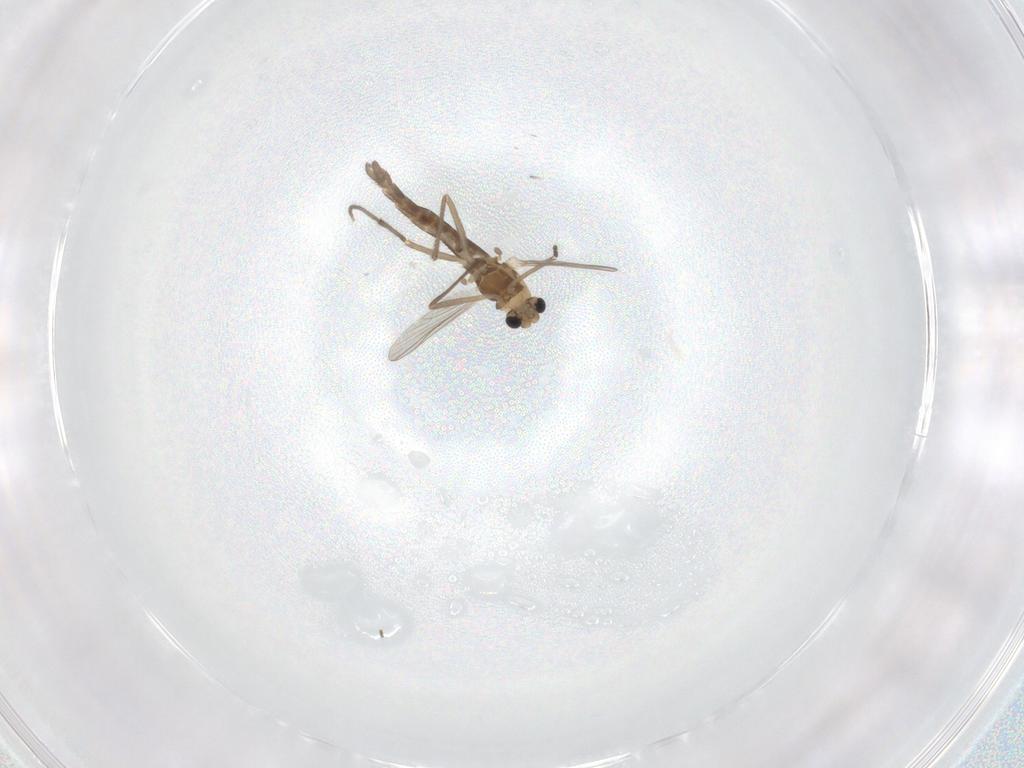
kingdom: Animalia
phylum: Arthropoda
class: Insecta
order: Diptera
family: Chironomidae
